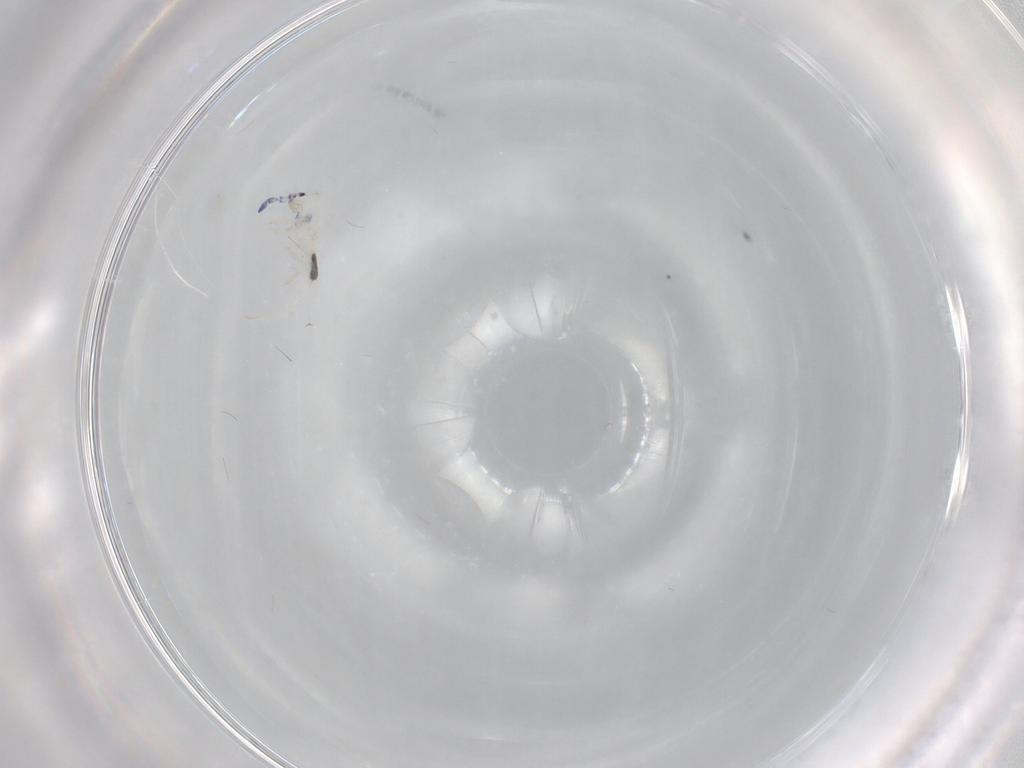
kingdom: Animalia
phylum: Arthropoda
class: Collembola
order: Entomobryomorpha
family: Entomobryidae
